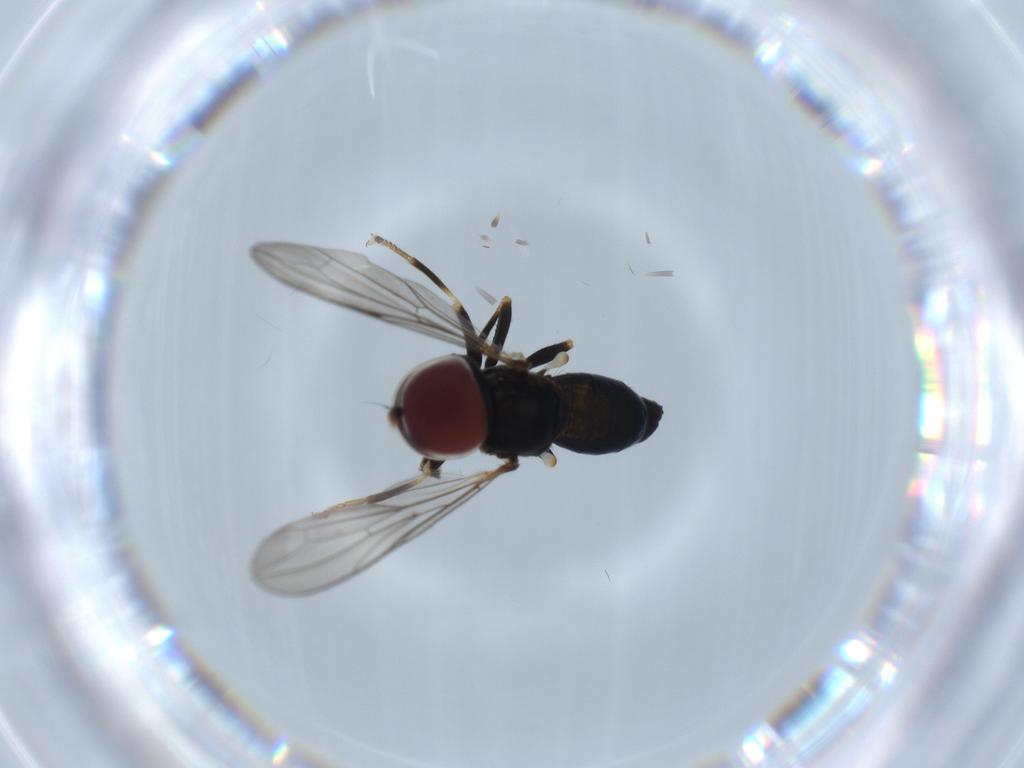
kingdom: Animalia
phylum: Arthropoda
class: Insecta
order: Diptera
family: Pipunculidae
